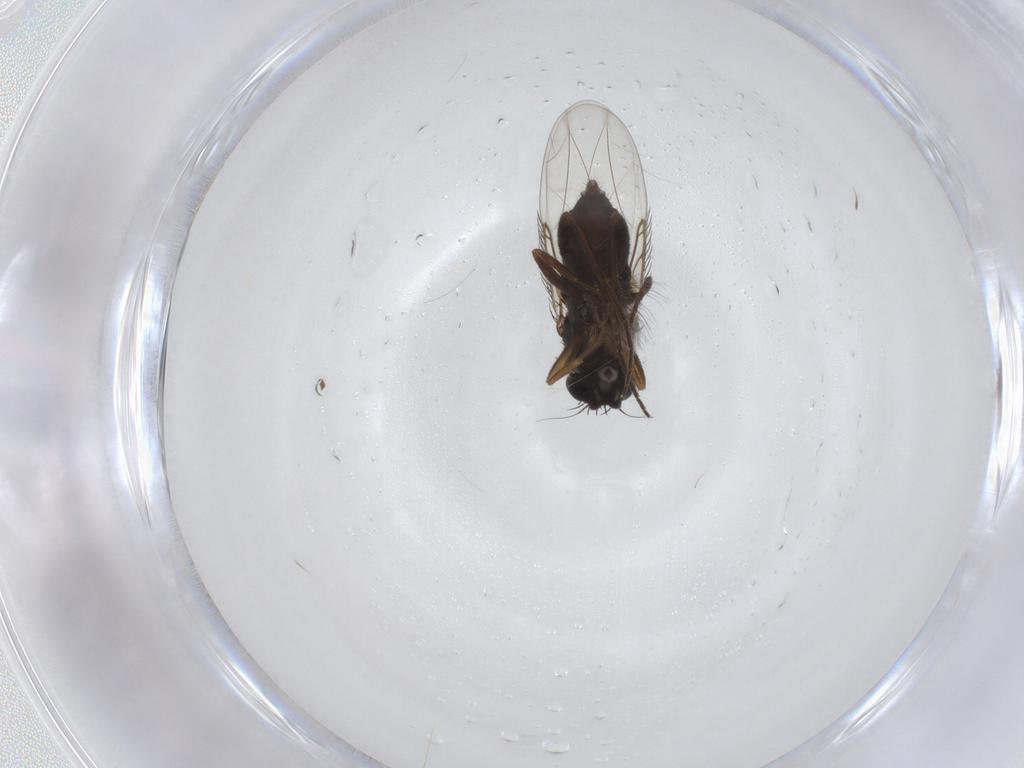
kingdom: Animalia
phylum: Arthropoda
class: Insecta
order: Diptera
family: Phoridae
